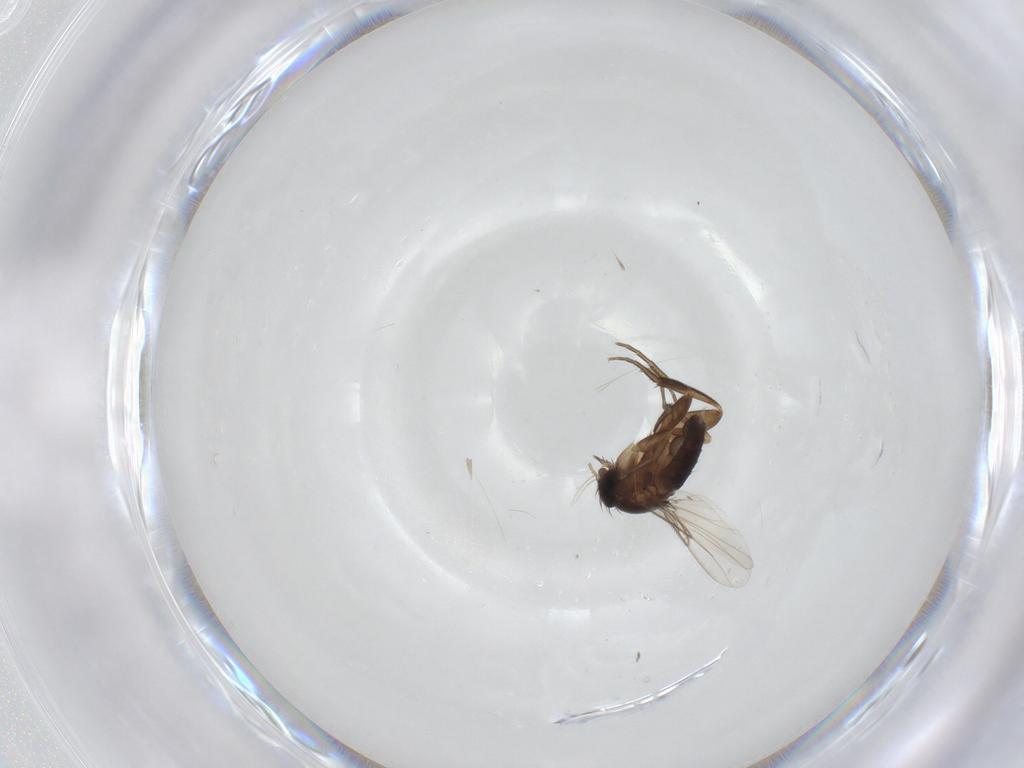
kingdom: Animalia
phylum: Arthropoda
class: Insecta
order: Diptera
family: Phoridae
